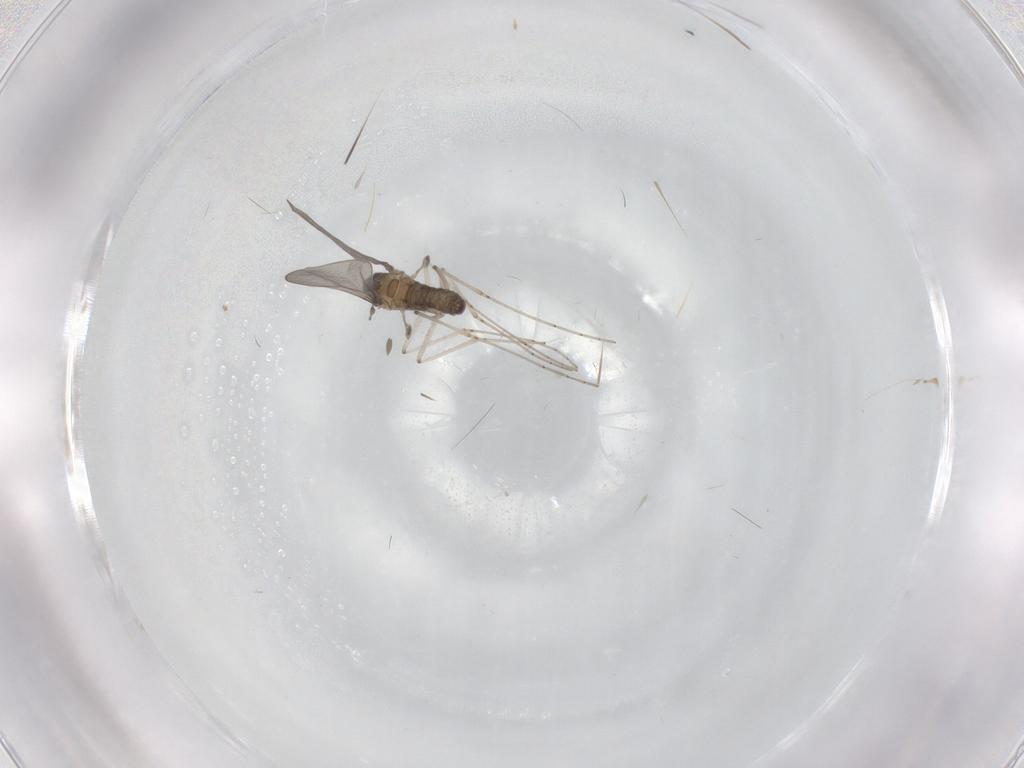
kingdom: Animalia
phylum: Arthropoda
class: Insecta
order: Diptera
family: Cecidomyiidae
